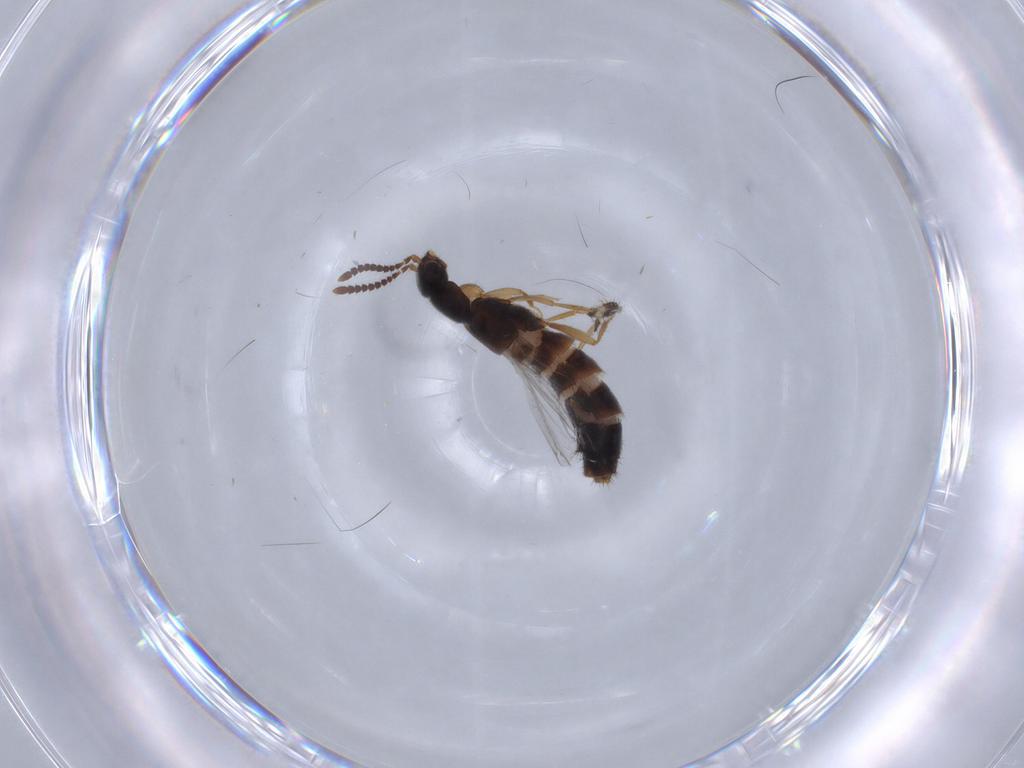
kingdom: Animalia
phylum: Arthropoda
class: Insecta
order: Coleoptera
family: Staphylinidae
